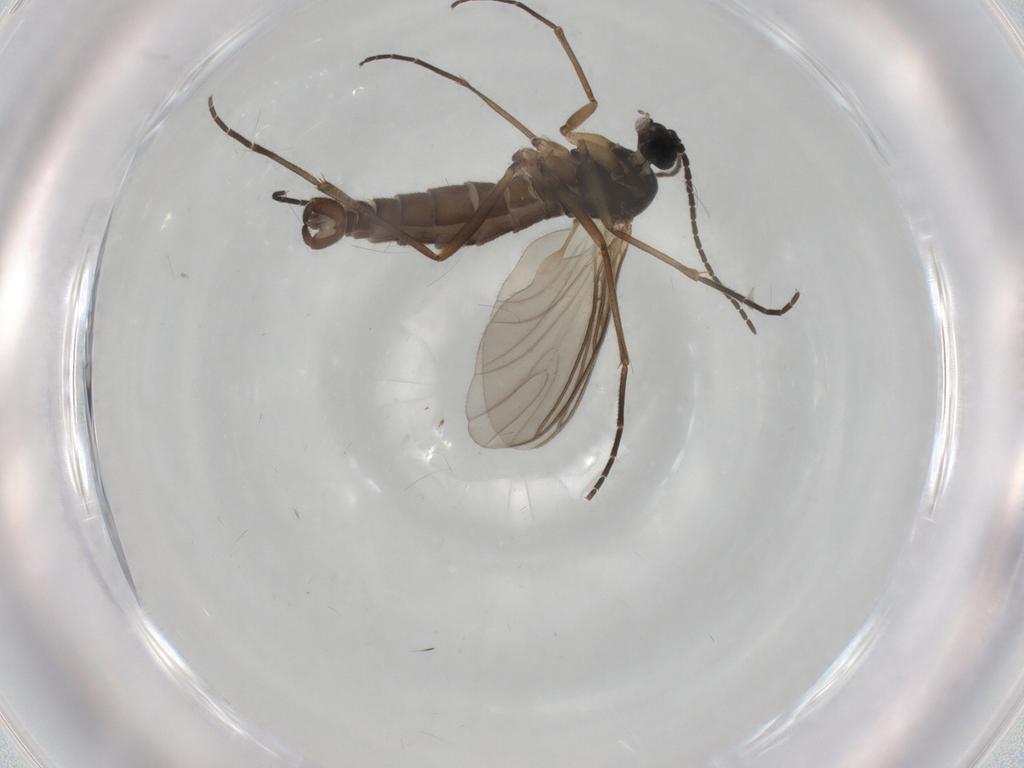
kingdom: Animalia
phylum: Arthropoda
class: Insecta
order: Diptera
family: Sciaridae
